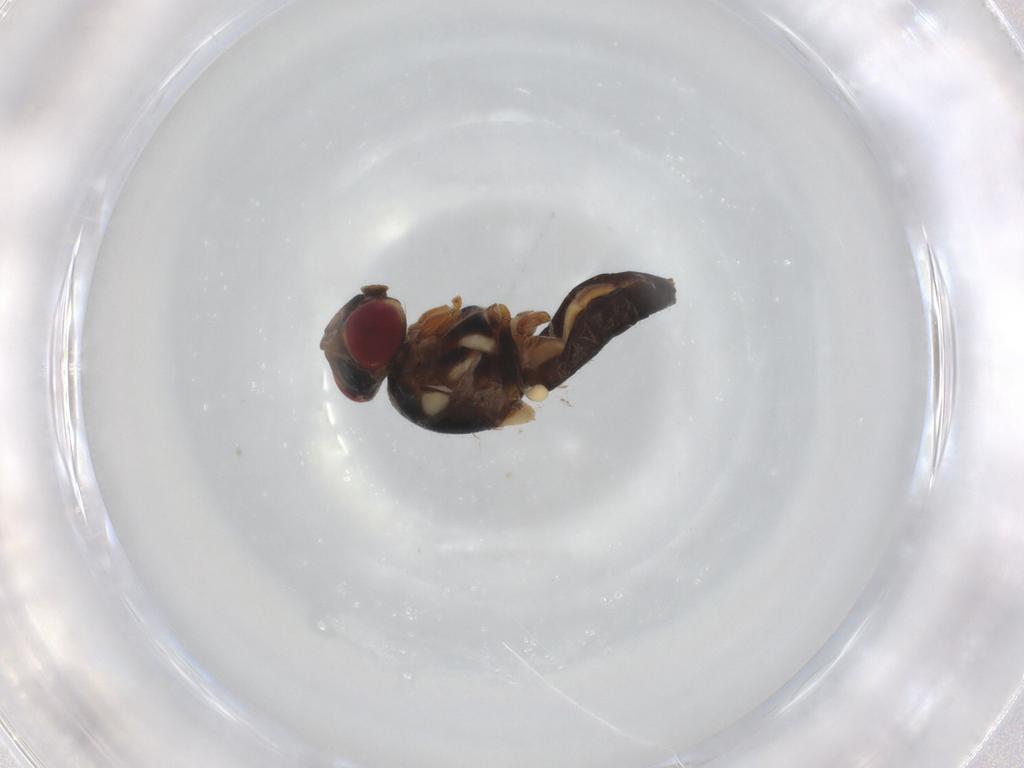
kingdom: Animalia
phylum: Arthropoda
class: Insecta
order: Diptera
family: Chloropidae
